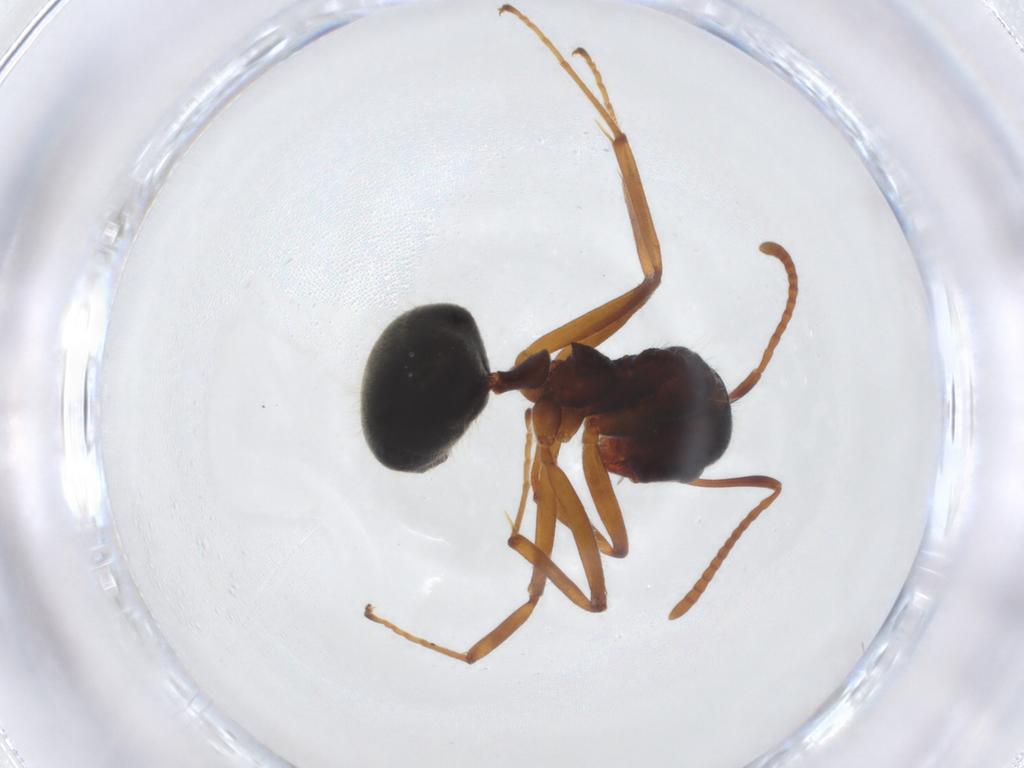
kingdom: Animalia
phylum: Arthropoda
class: Insecta
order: Hymenoptera
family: Formicidae
